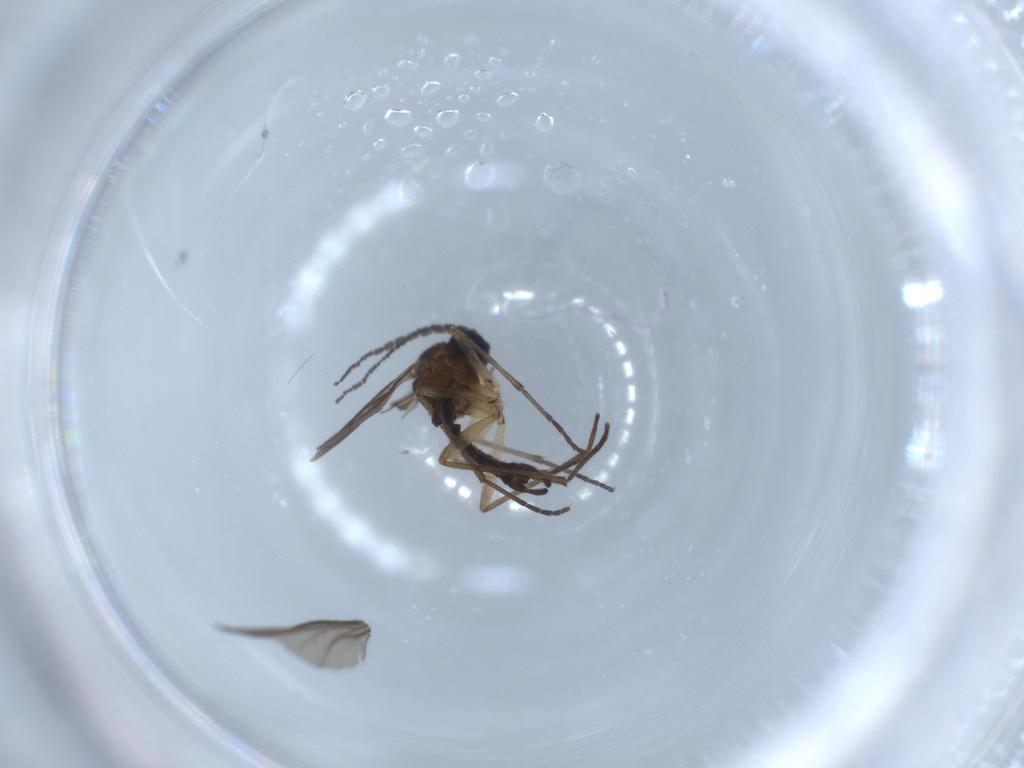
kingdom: Animalia
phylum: Arthropoda
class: Insecta
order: Diptera
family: Sciaridae
